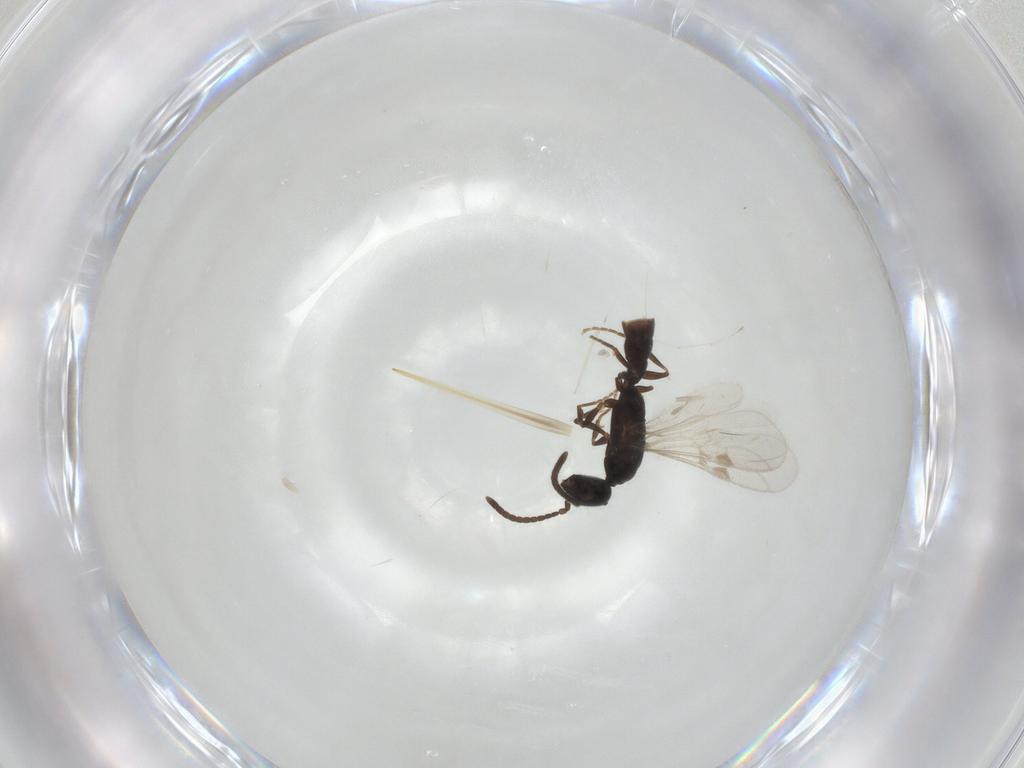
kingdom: Animalia
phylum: Arthropoda
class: Insecta
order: Hymenoptera
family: Formicidae
